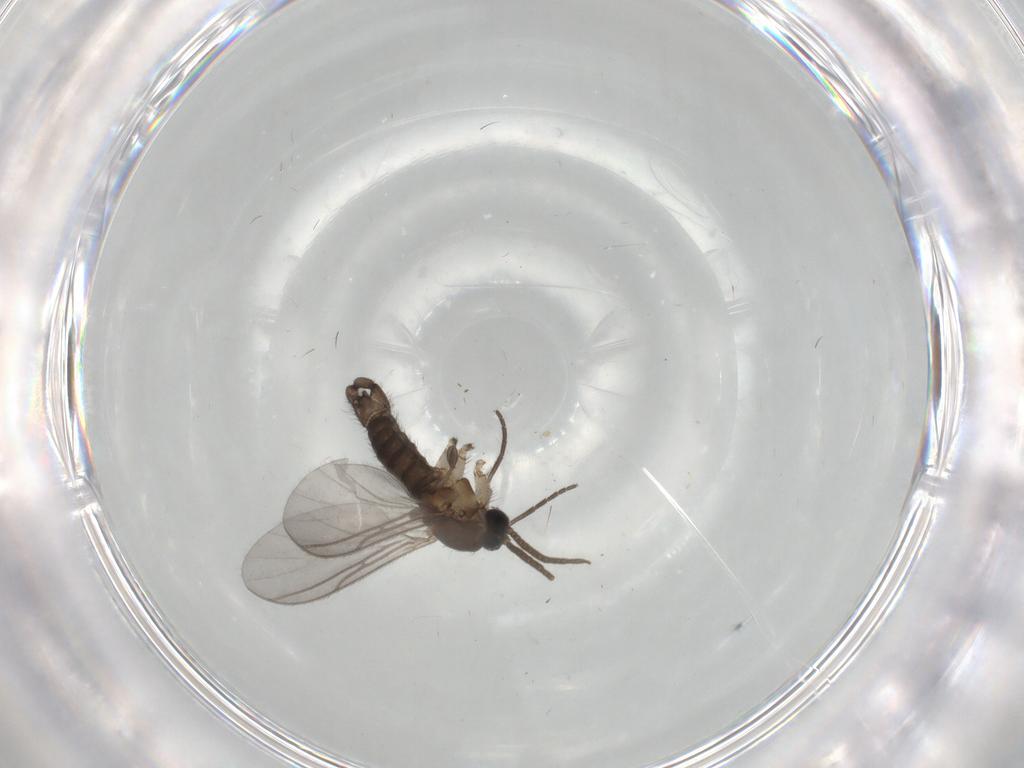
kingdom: Animalia
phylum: Arthropoda
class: Insecta
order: Diptera
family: Sciaridae
